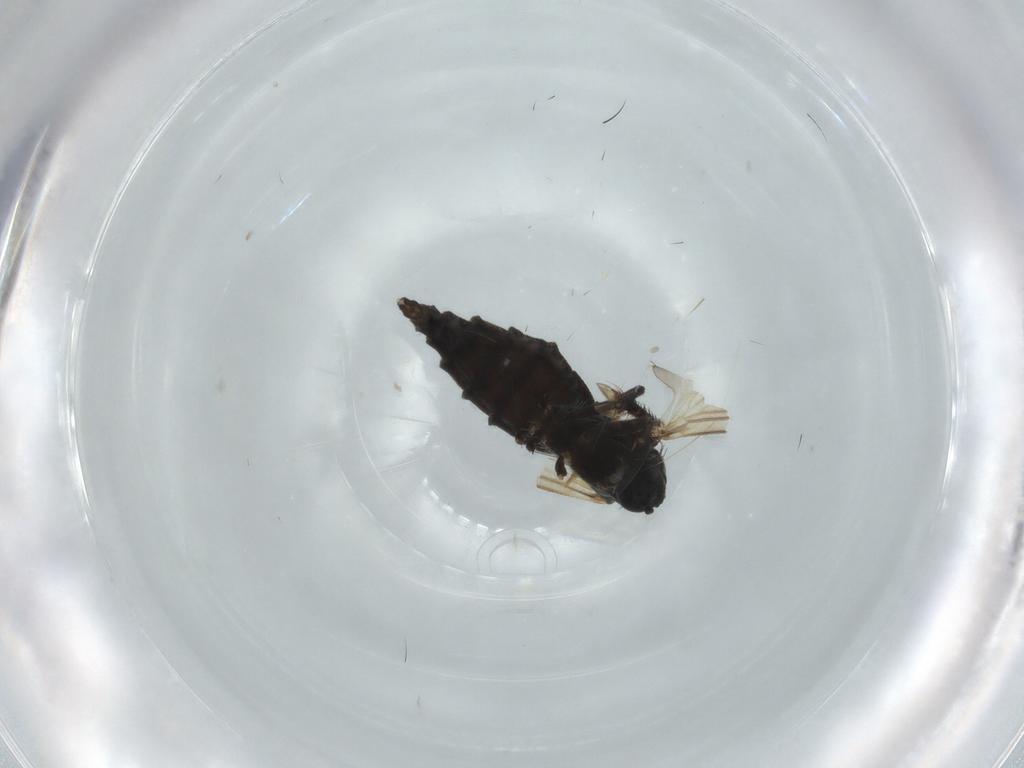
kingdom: Animalia
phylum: Arthropoda
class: Insecta
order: Diptera
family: Sciaridae
